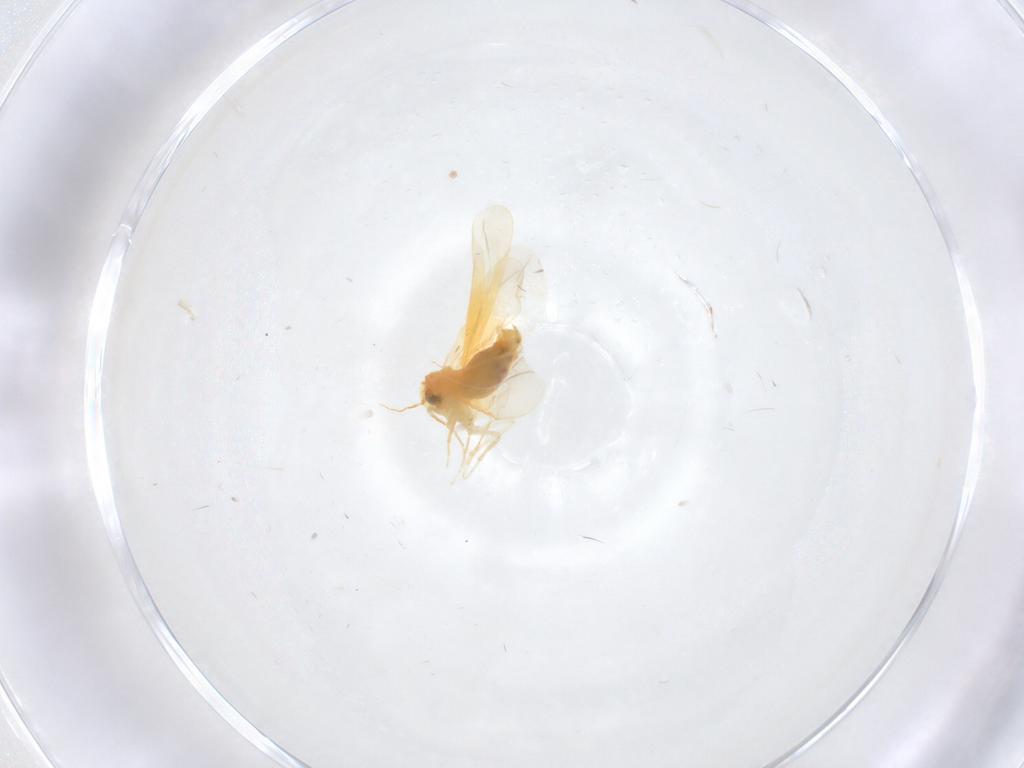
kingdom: Animalia
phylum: Arthropoda
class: Insecta
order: Hemiptera
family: Aleyrodidae
